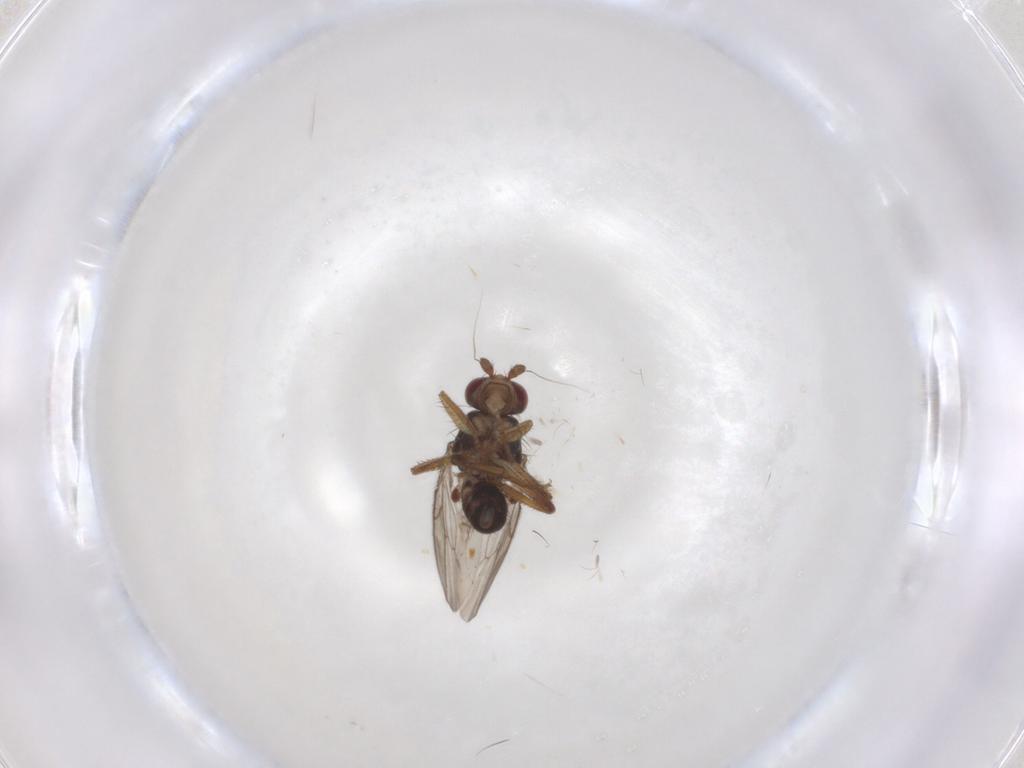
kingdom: Animalia
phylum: Arthropoda
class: Insecta
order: Diptera
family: Sphaeroceridae
